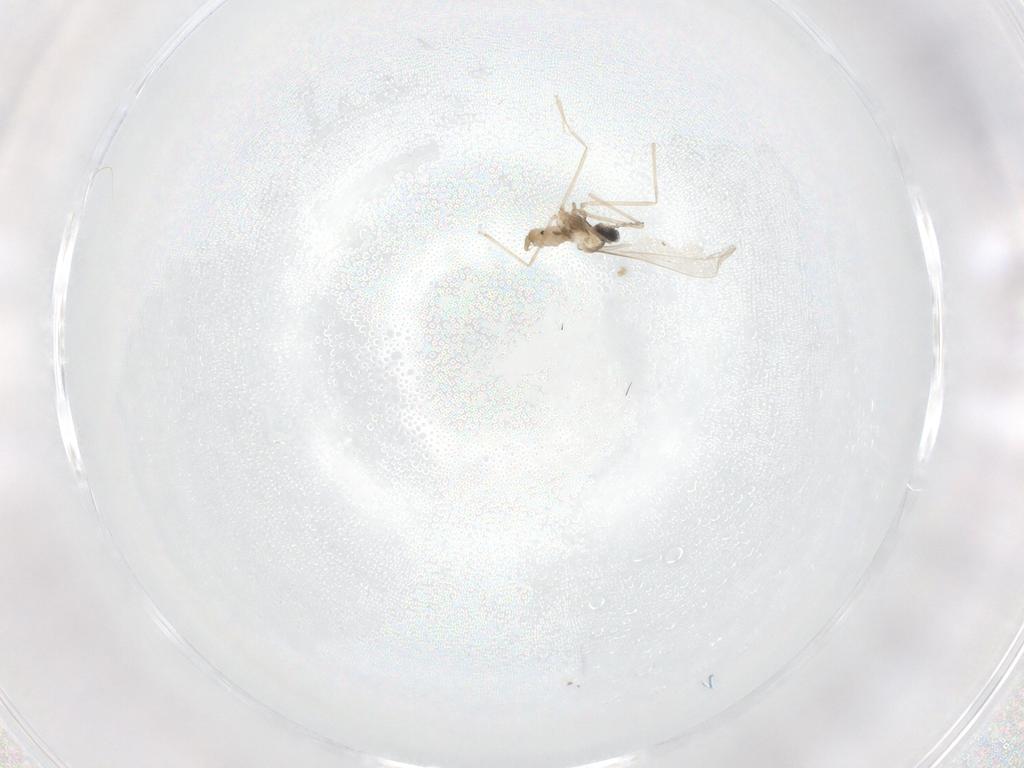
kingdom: Animalia
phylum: Arthropoda
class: Insecta
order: Diptera
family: Cecidomyiidae
